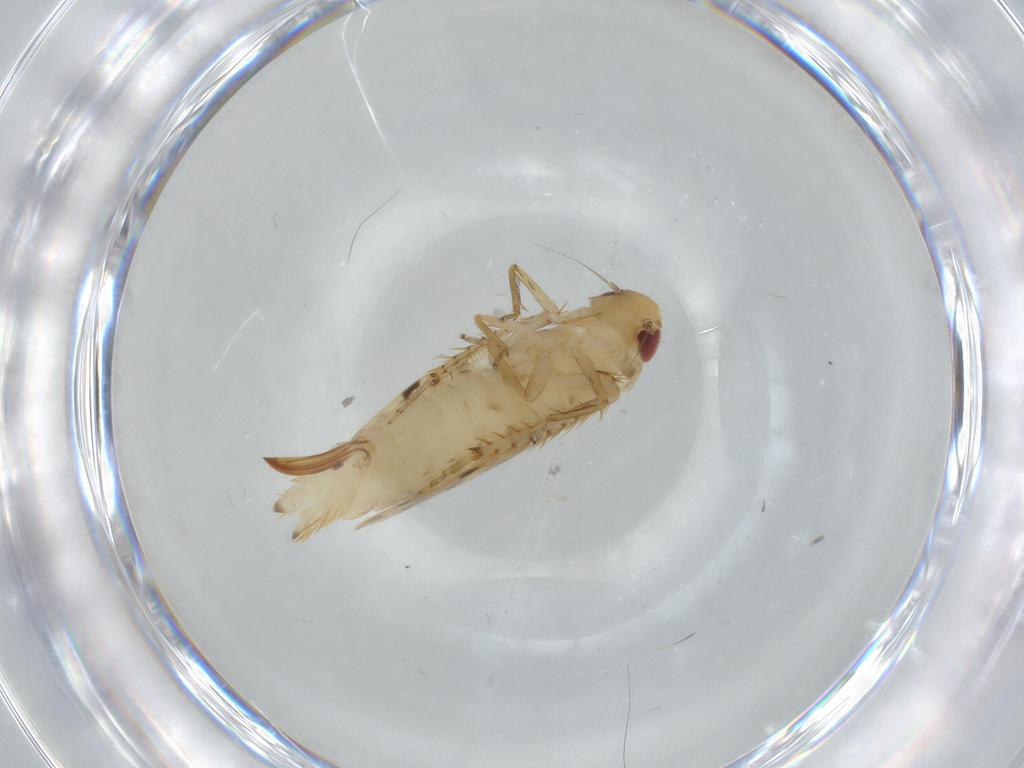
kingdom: Animalia
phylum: Arthropoda
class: Insecta
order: Hemiptera
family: Cicadellidae
